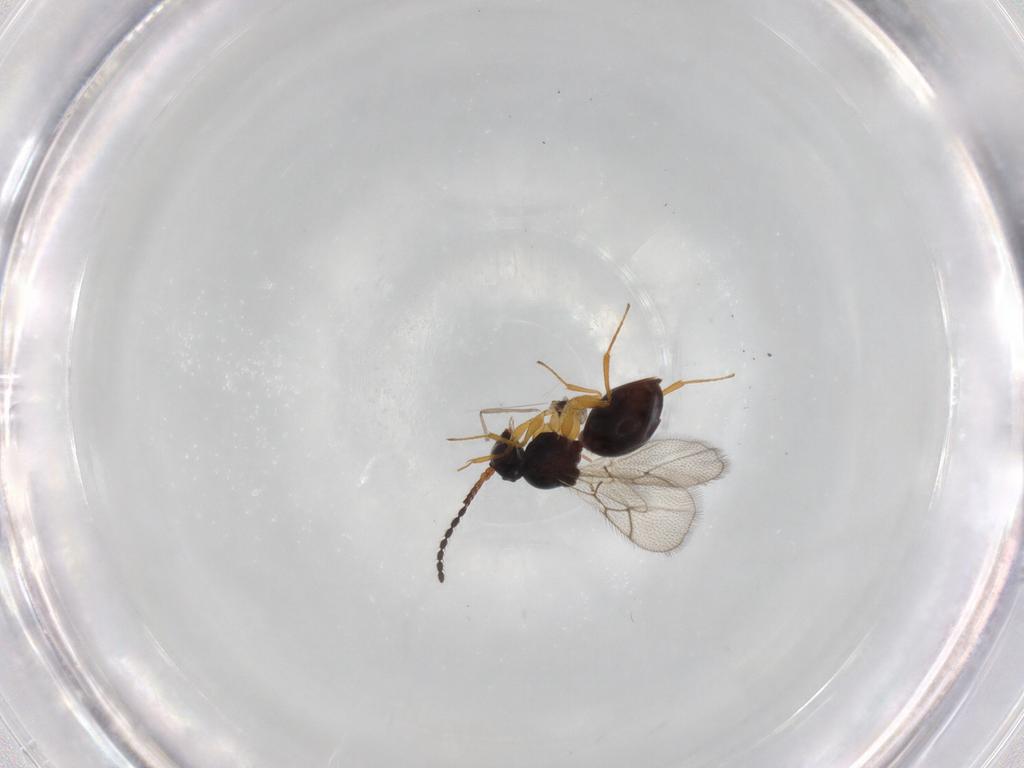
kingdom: Animalia
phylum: Arthropoda
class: Insecta
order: Hymenoptera
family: Figitidae
